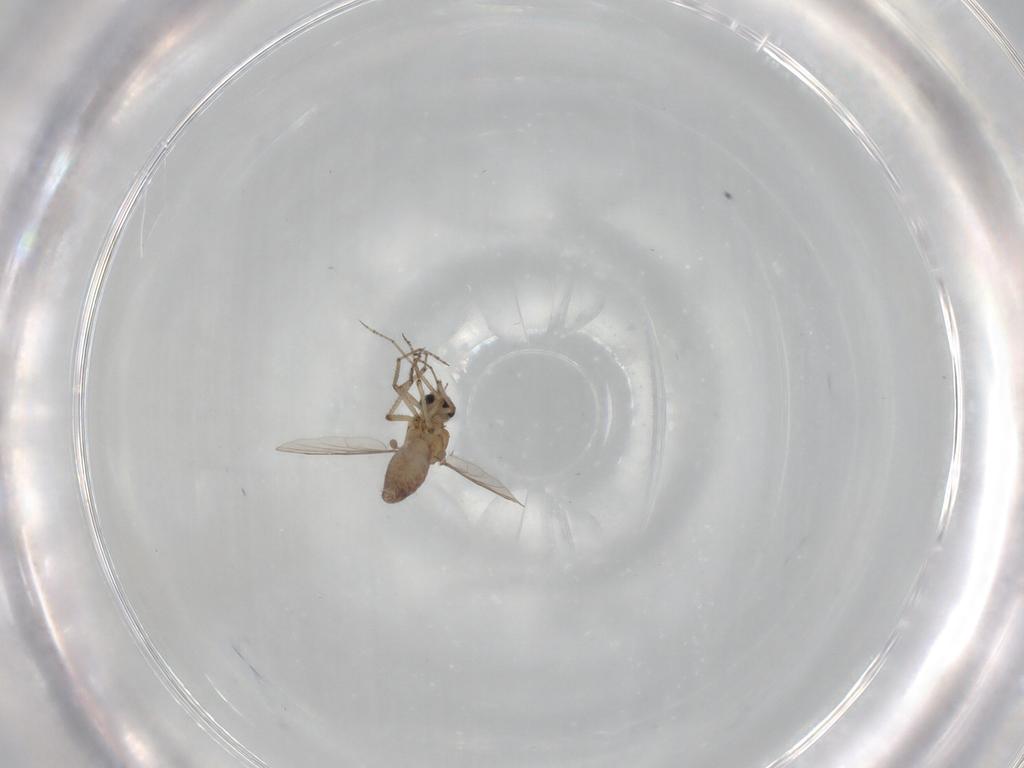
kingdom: Animalia
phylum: Arthropoda
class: Insecta
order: Diptera
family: Ceratopogonidae
